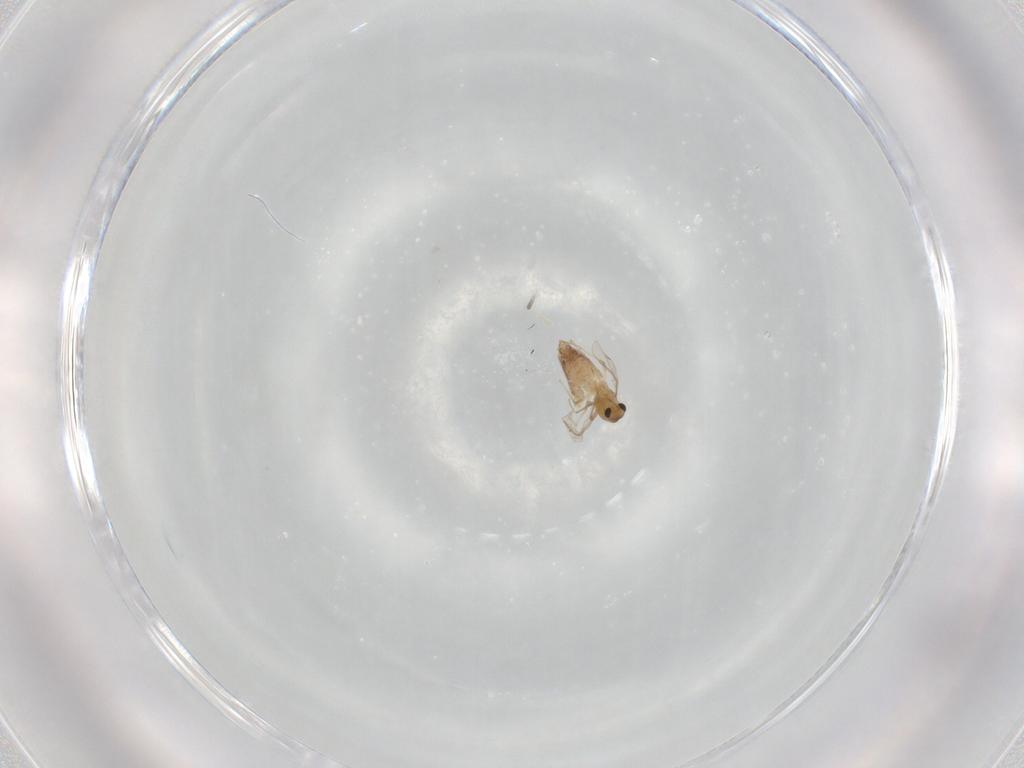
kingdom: Animalia
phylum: Arthropoda
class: Insecta
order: Diptera
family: Chironomidae
